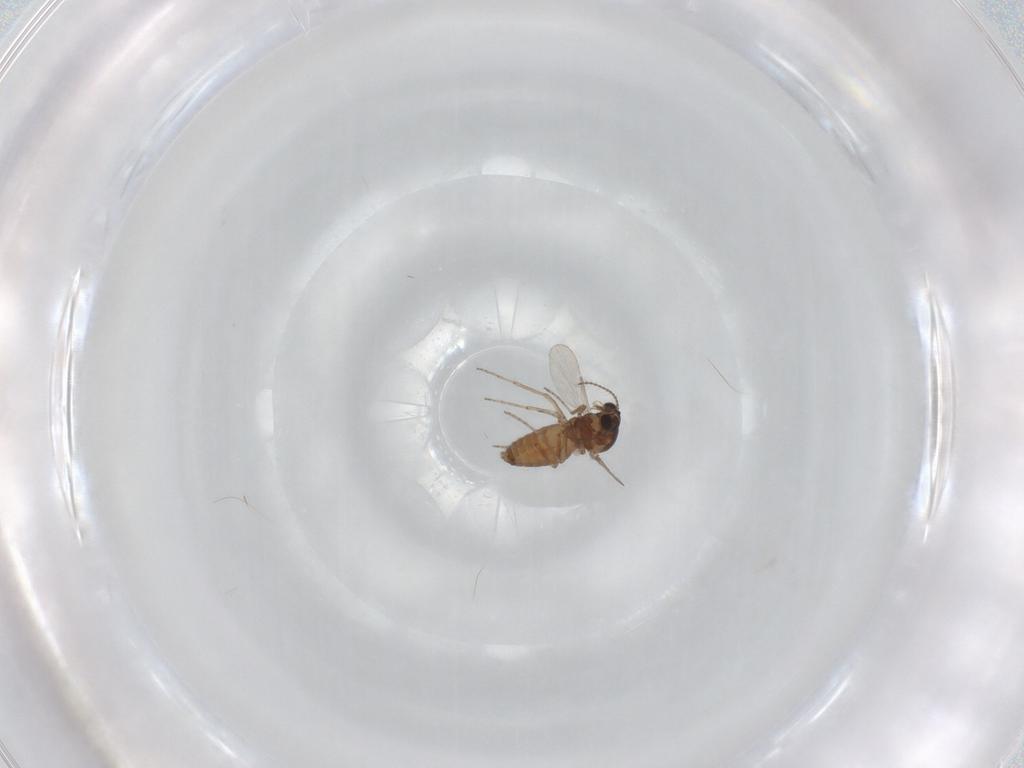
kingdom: Animalia
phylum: Arthropoda
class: Insecta
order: Diptera
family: Ceratopogonidae
